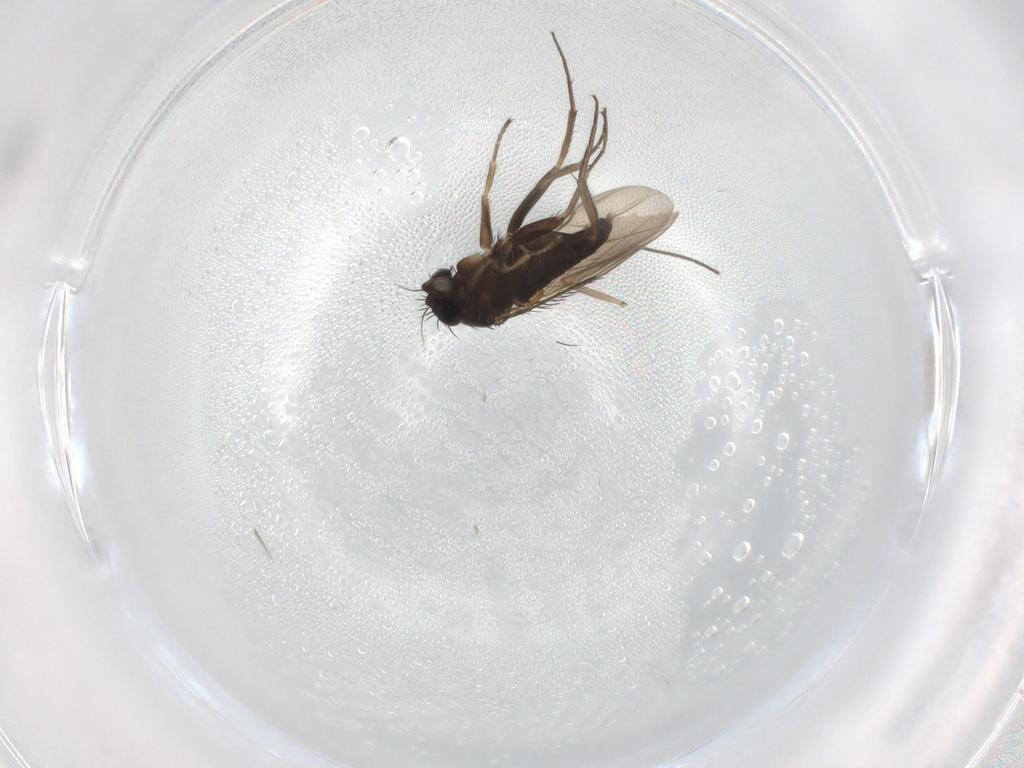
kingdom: Animalia
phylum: Arthropoda
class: Insecta
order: Diptera
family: Phoridae
